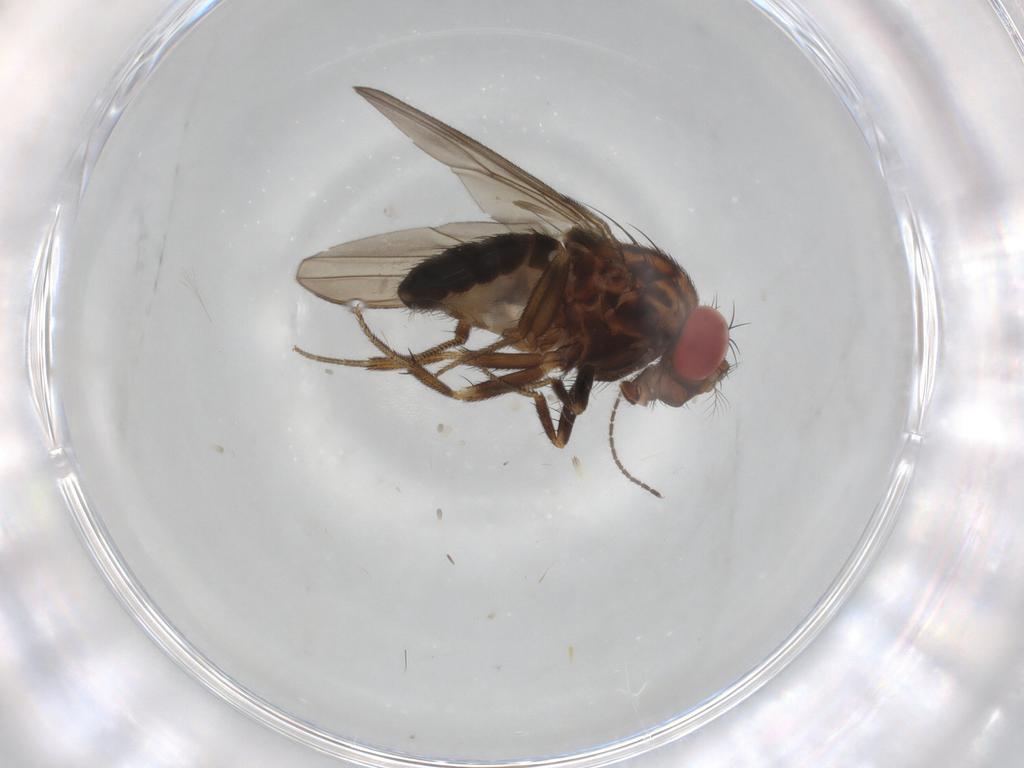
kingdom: Animalia
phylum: Arthropoda
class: Insecta
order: Diptera
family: Drosophilidae
